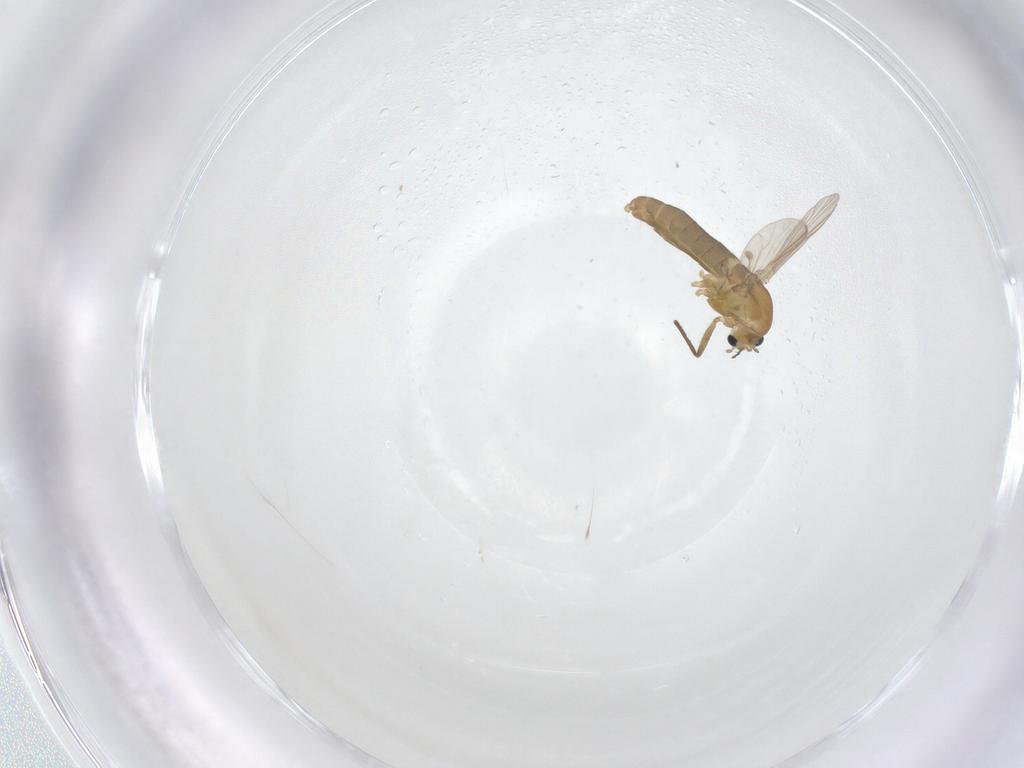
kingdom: Animalia
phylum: Arthropoda
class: Insecta
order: Diptera
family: Chironomidae
